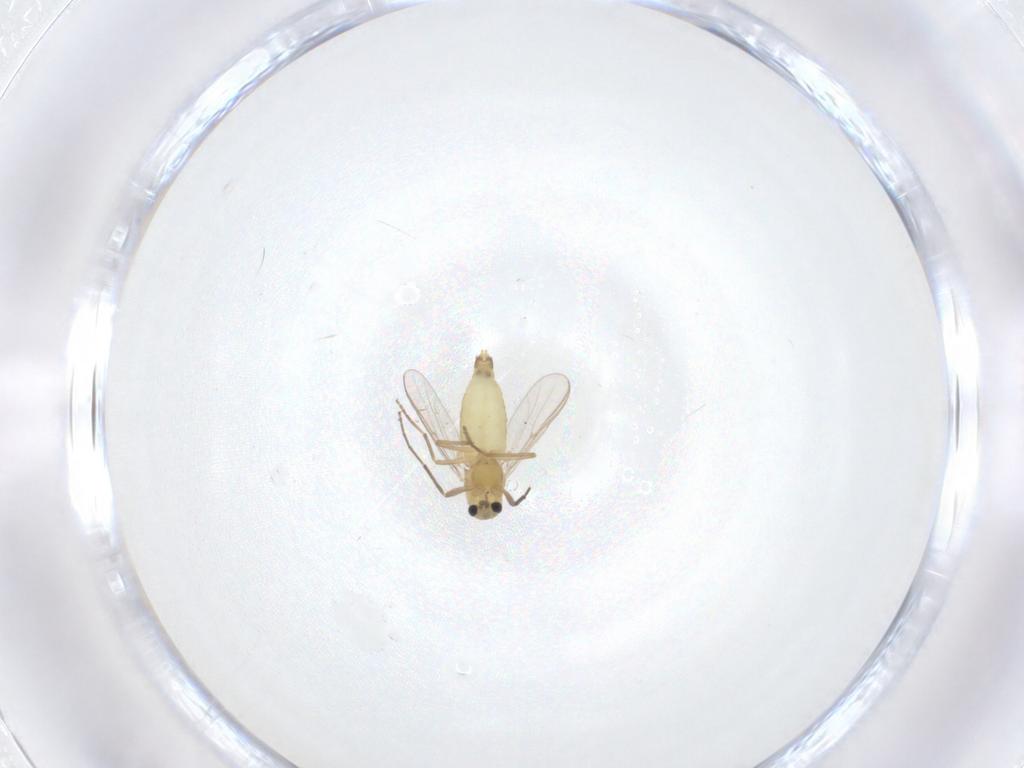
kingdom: Animalia
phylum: Arthropoda
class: Insecta
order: Diptera
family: Chironomidae
